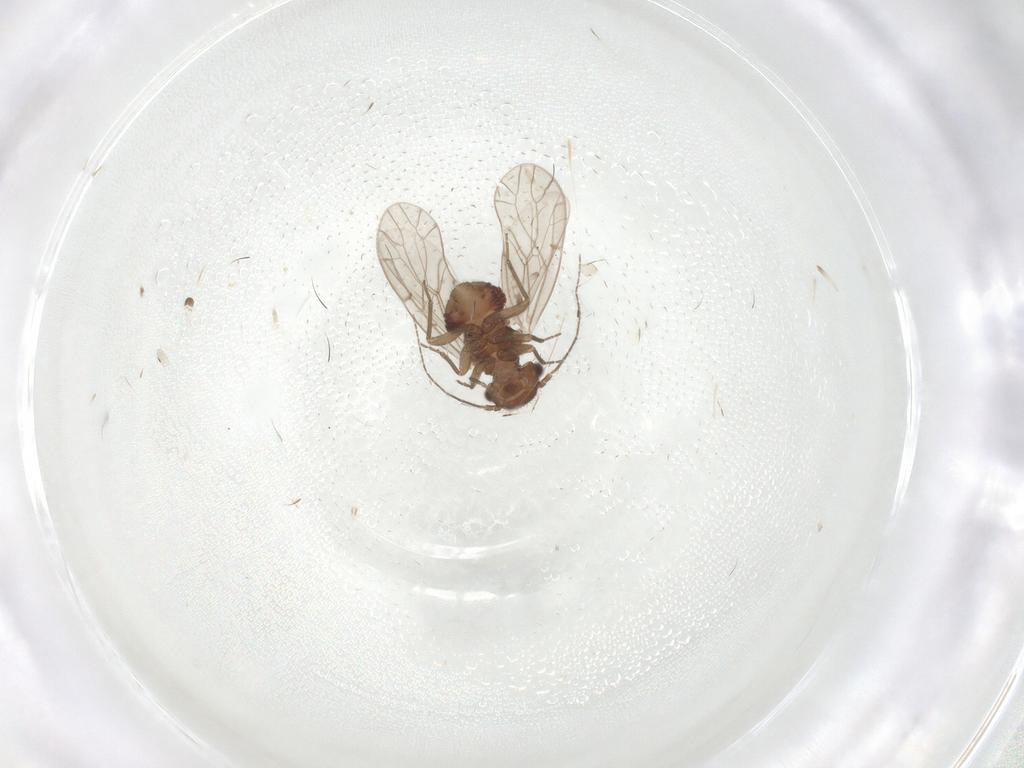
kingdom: Animalia
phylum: Arthropoda
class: Insecta
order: Psocodea
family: Ectopsocidae
